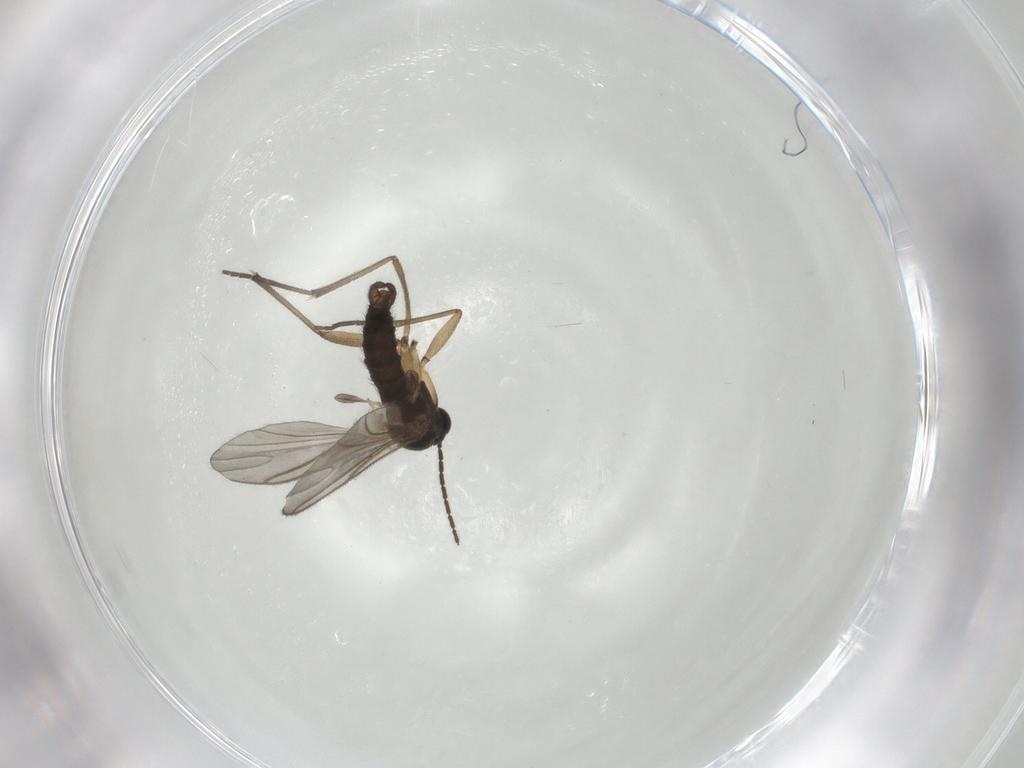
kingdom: Animalia
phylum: Arthropoda
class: Insecta
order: Diptera
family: Sciaridae
